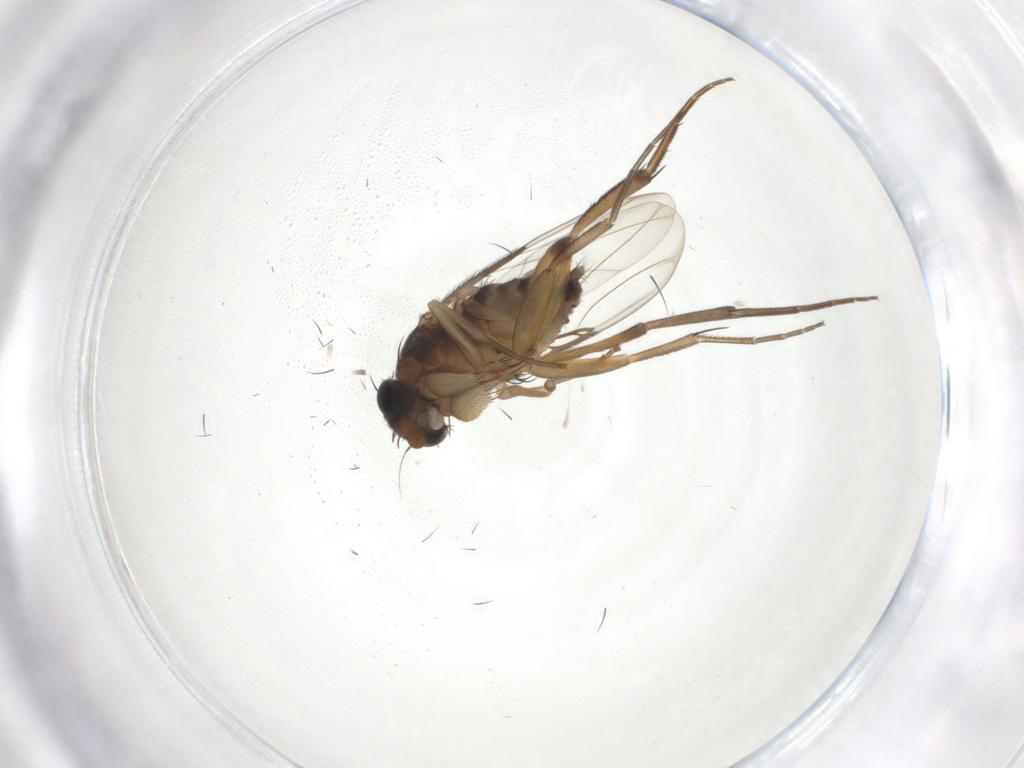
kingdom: Animalia
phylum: Arthropoda
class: Insecta
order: Diptera
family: Phoridae
